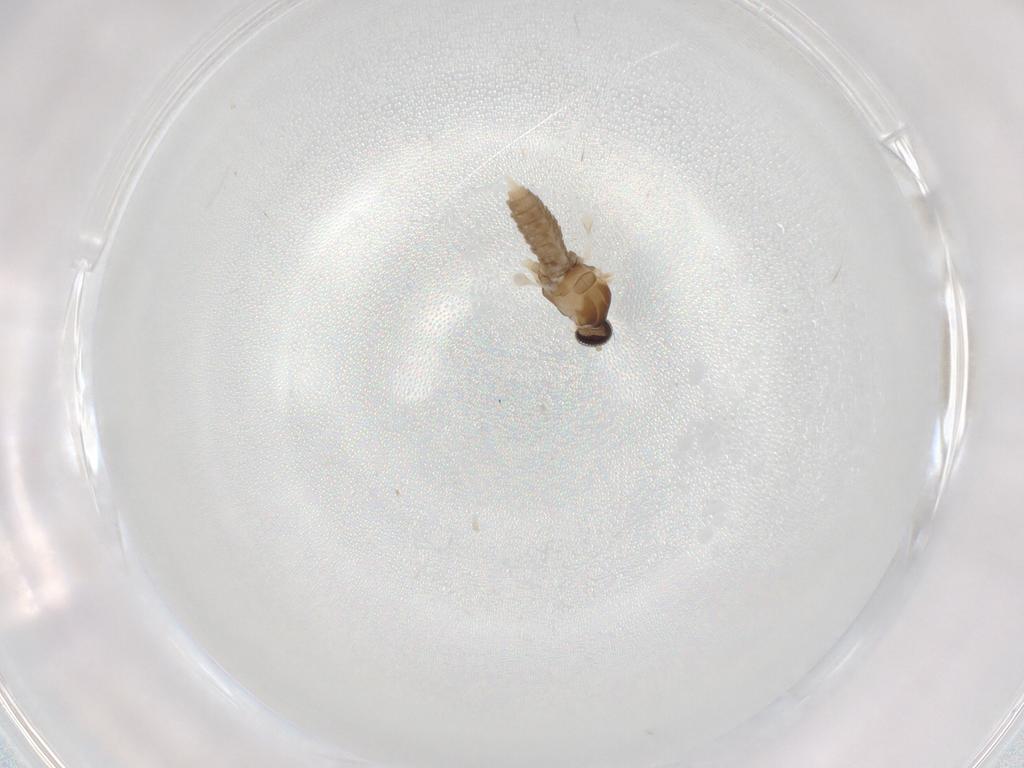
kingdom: Animalia
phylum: Arthropoda
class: Insecta
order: Diptera
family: Cecidomyiidae
